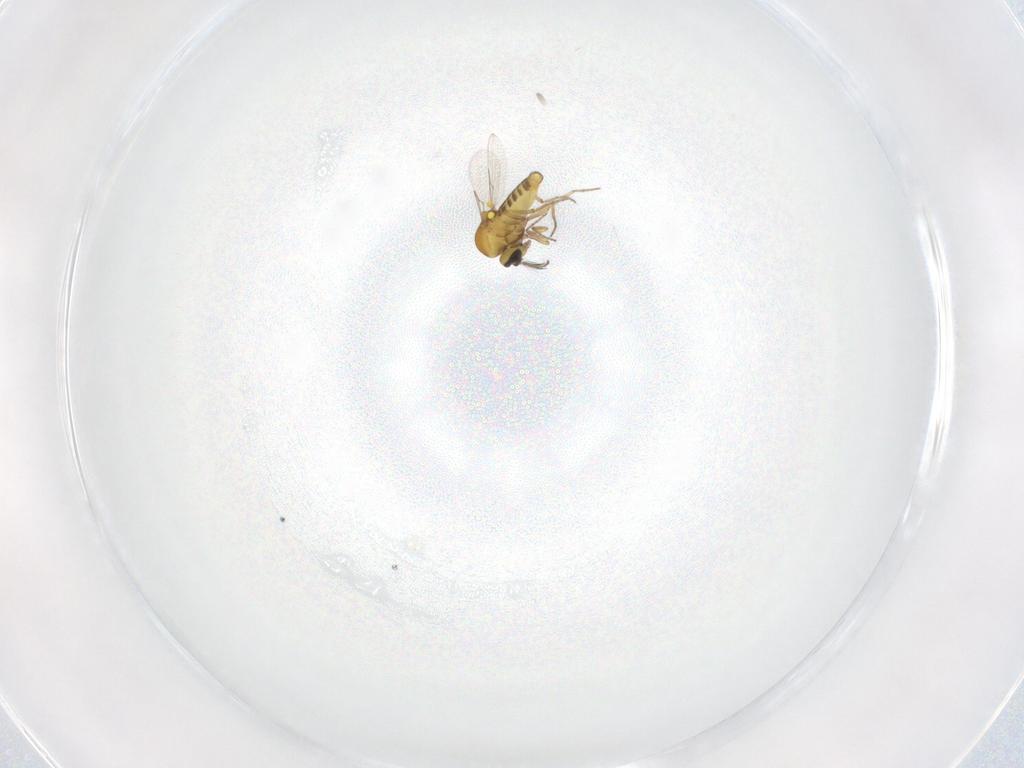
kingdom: Animalia
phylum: Arthropoda
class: Insecta
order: Diptera
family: Ceratopogonidae
